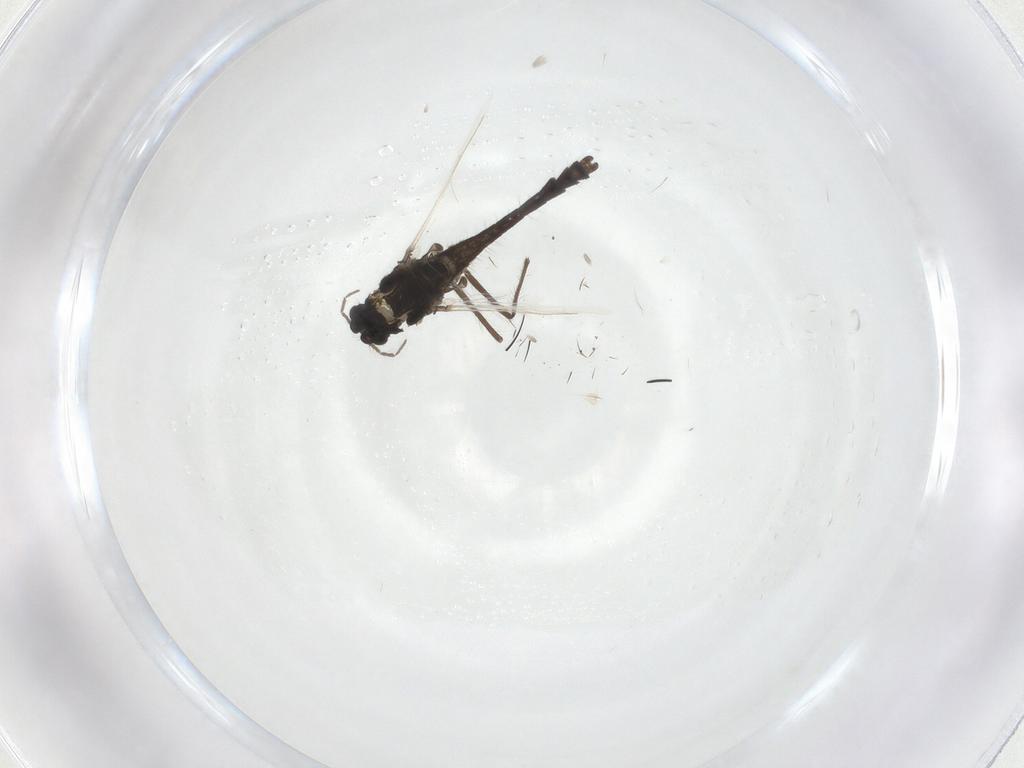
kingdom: Animalia
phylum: Arthropoda
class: Insecta
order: Diptera
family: Chironomidae
